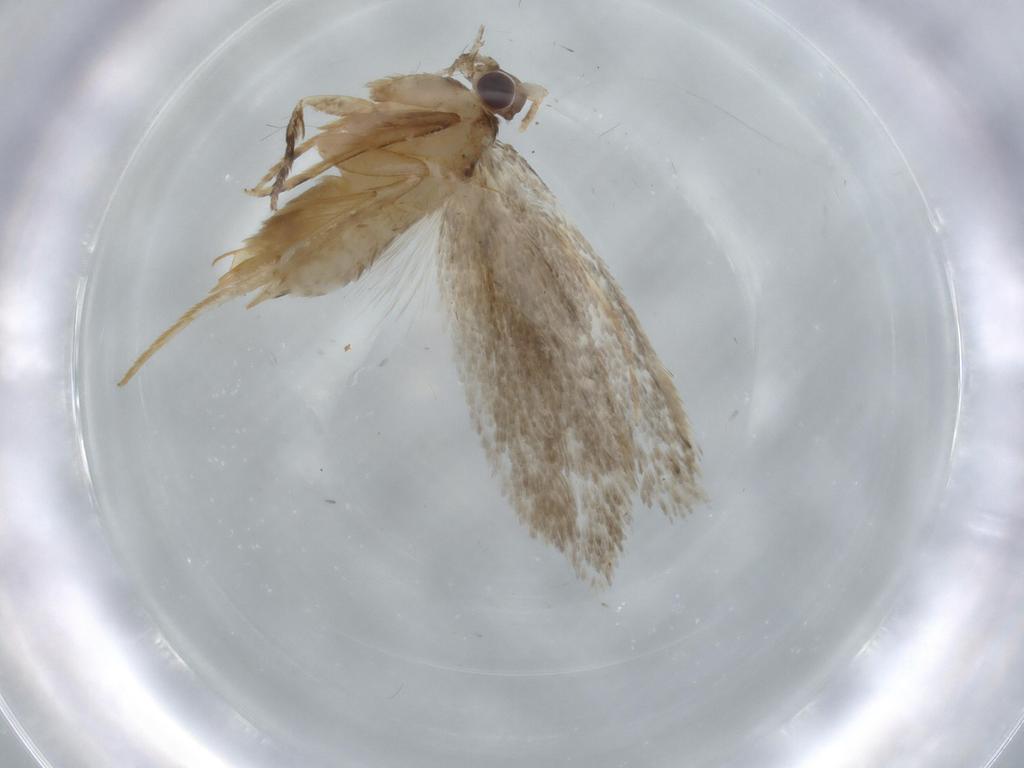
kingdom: Animalia
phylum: Arthropoda
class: Insecta
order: Lepidoptera
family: Tineidae
